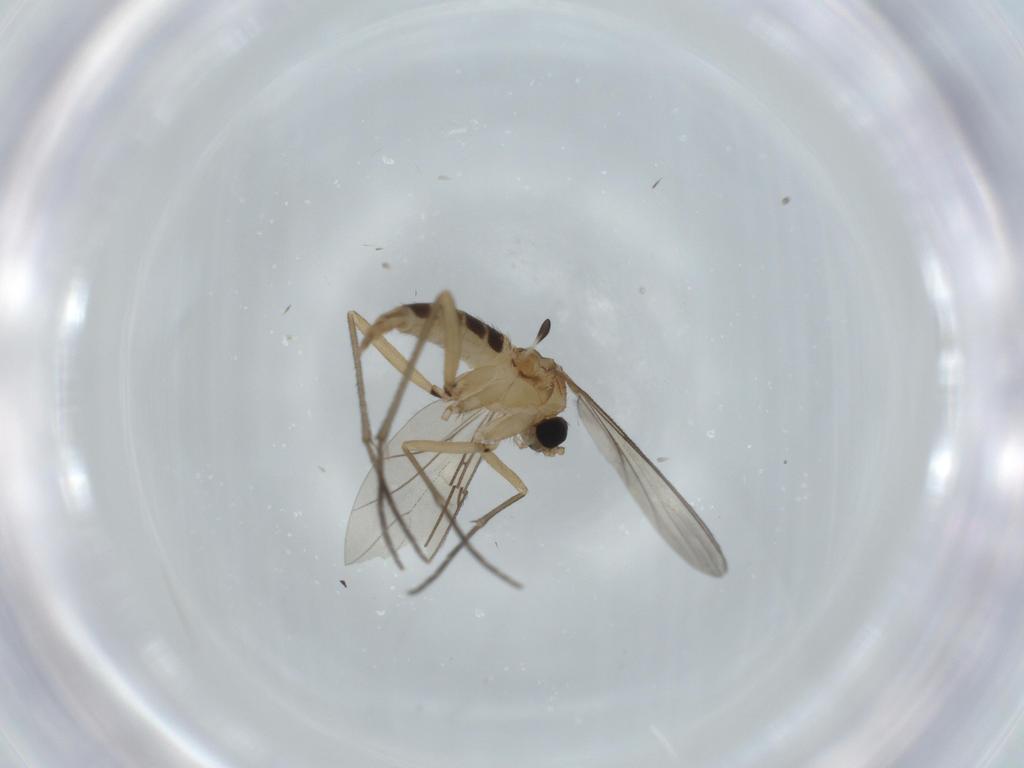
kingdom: Animalia
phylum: Arthropoda
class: Insecta
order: Diptera
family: Sciaridae
